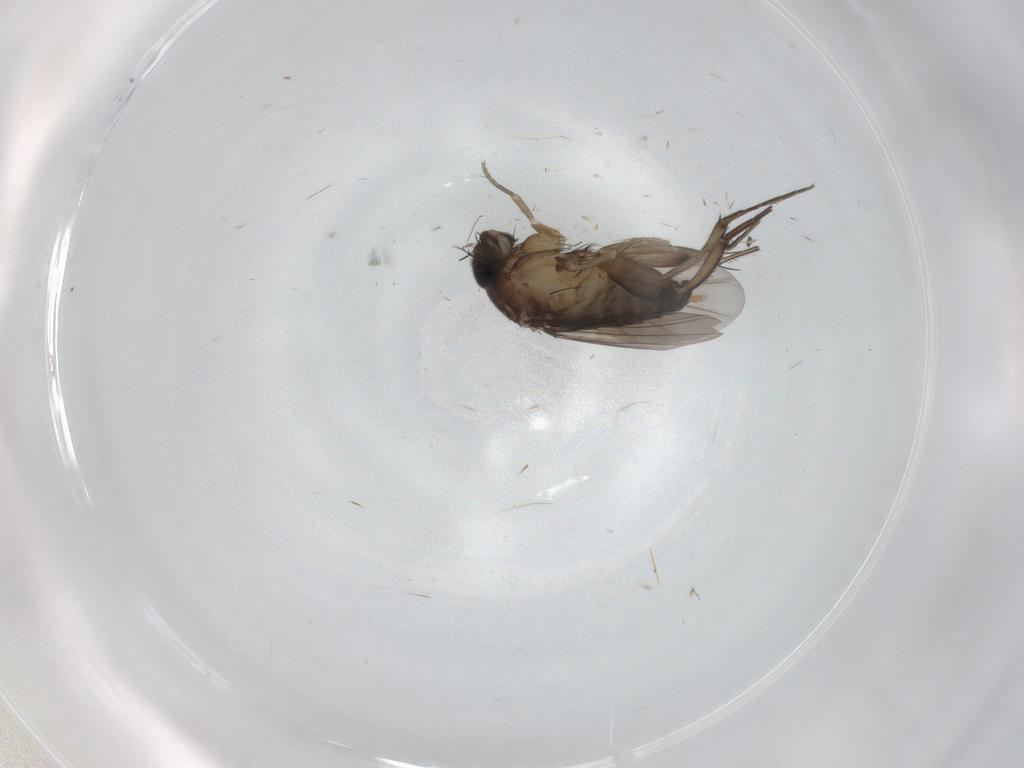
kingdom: Animalia
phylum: Arthropoda
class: Insecta
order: Diptera
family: Phoridae
